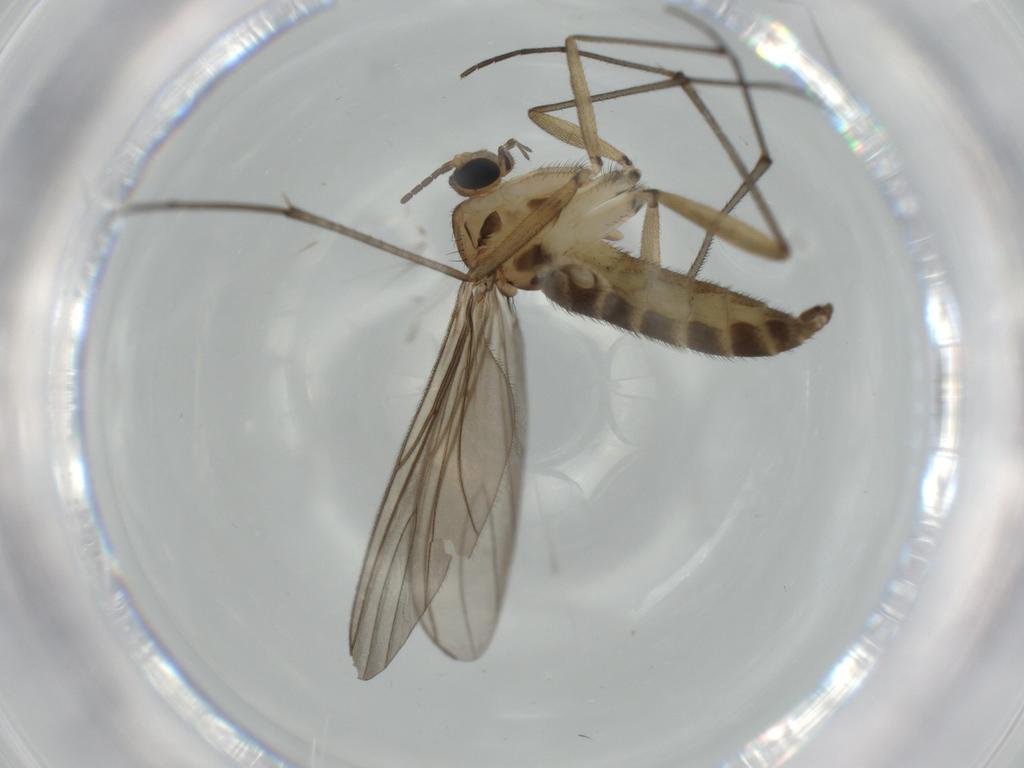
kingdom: Animalia
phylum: Arthropoda
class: Insecta
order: Diptera
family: Sciaridae
